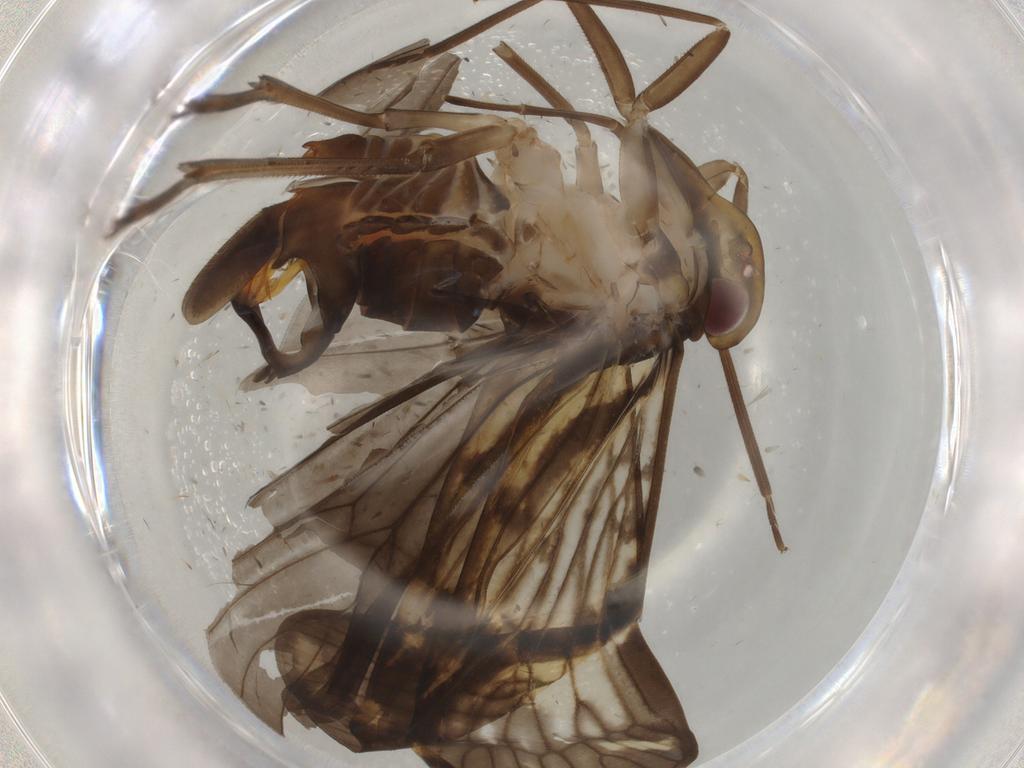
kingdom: Animalia
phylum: Arthropoda
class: Insecta
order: Hemiptera
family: Cixiidae
